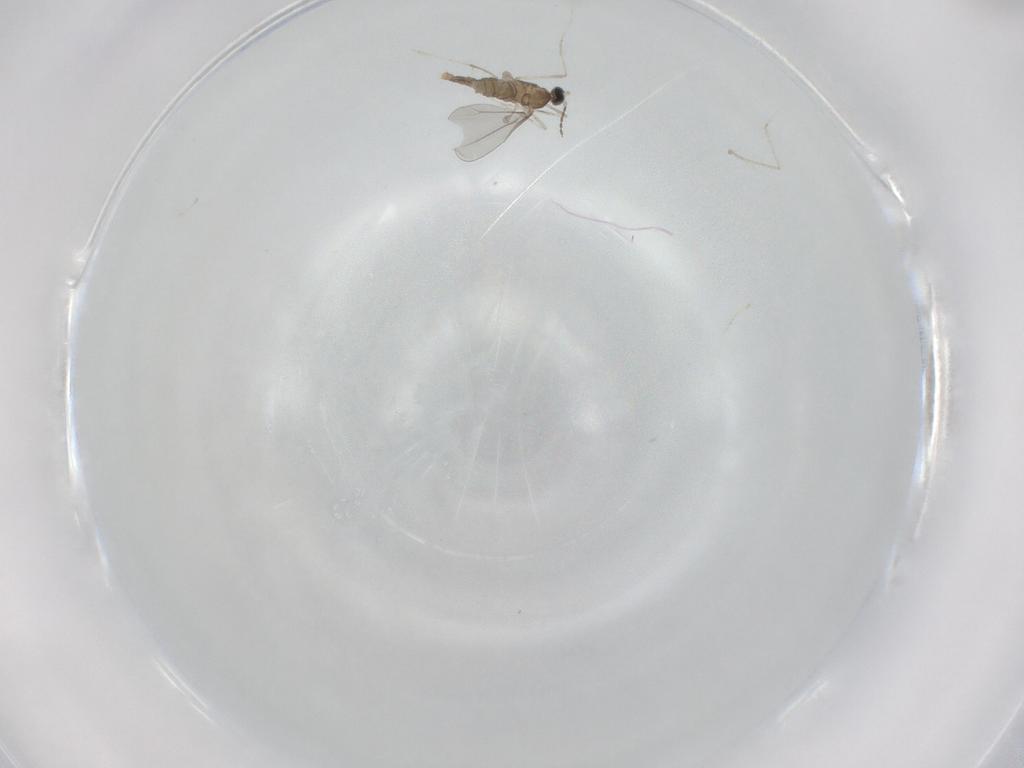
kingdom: Animalia
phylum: Arthropoda
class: Insecta
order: Diptera
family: Cecidomyiidae
